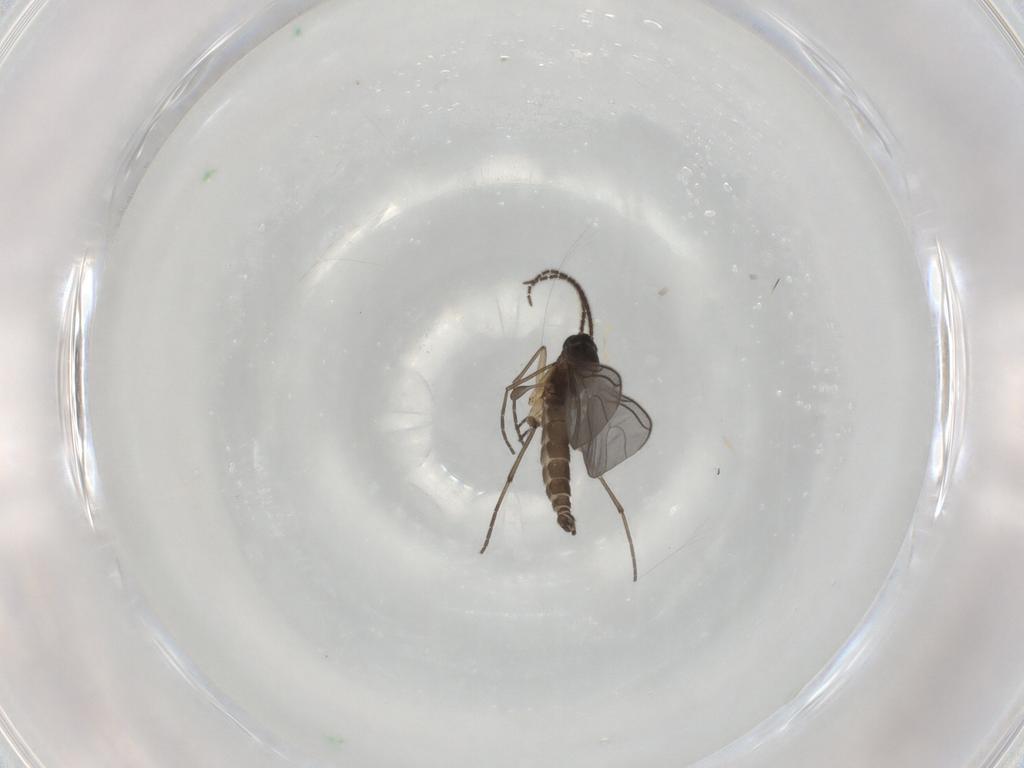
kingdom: Animalia
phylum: Arthropoda
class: Insecta
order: Diptera
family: Sciaridae
